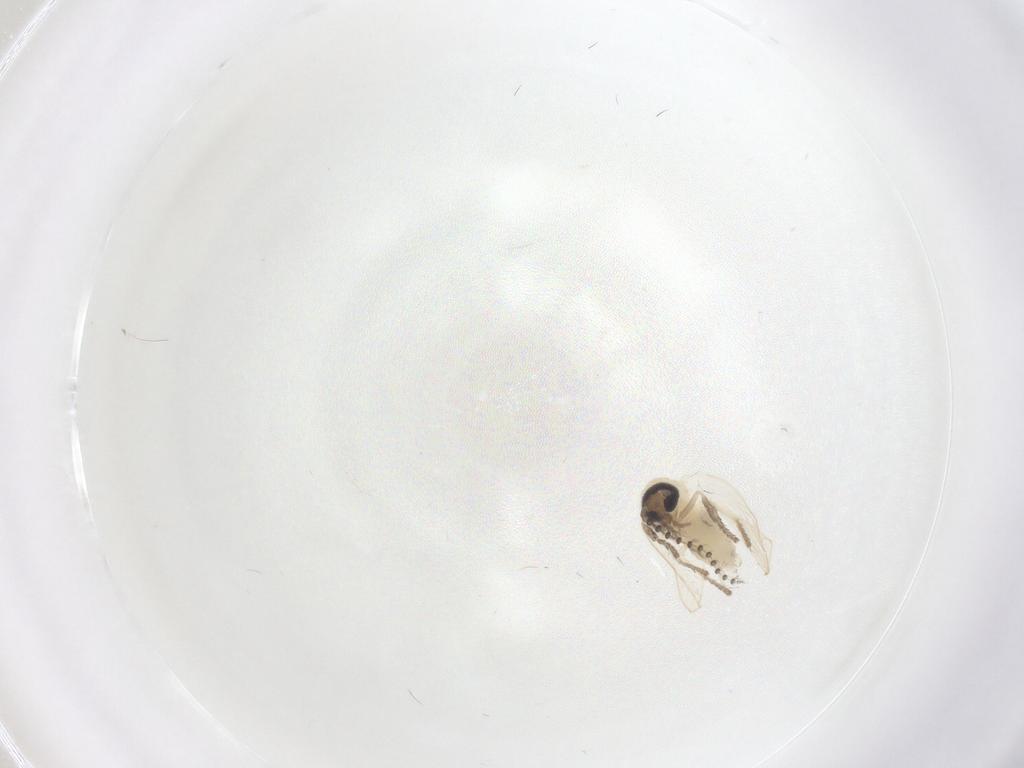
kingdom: Animalia
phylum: Arthropoda
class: Insecta
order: Diptera
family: Psychodidae
